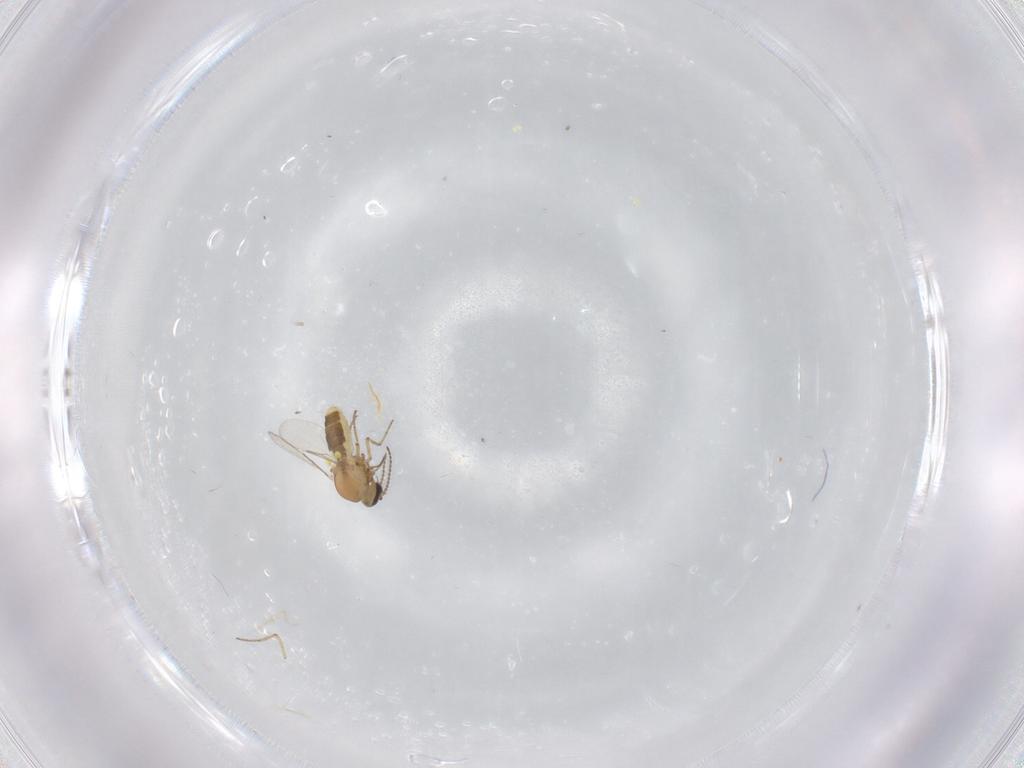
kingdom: Animalia
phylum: Arthropoda
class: Insecta
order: Diptera
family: Ceratopogonidae
